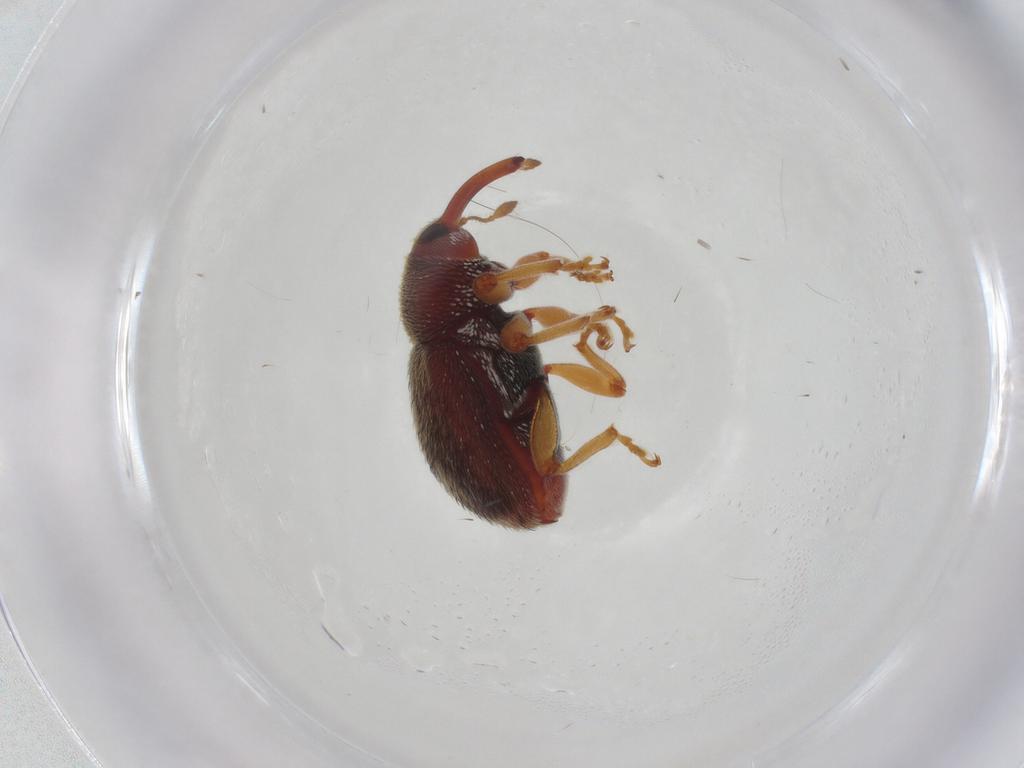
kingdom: Animalia
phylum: Arthropoda
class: Insecta
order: Coleoptera
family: Curculionidae
